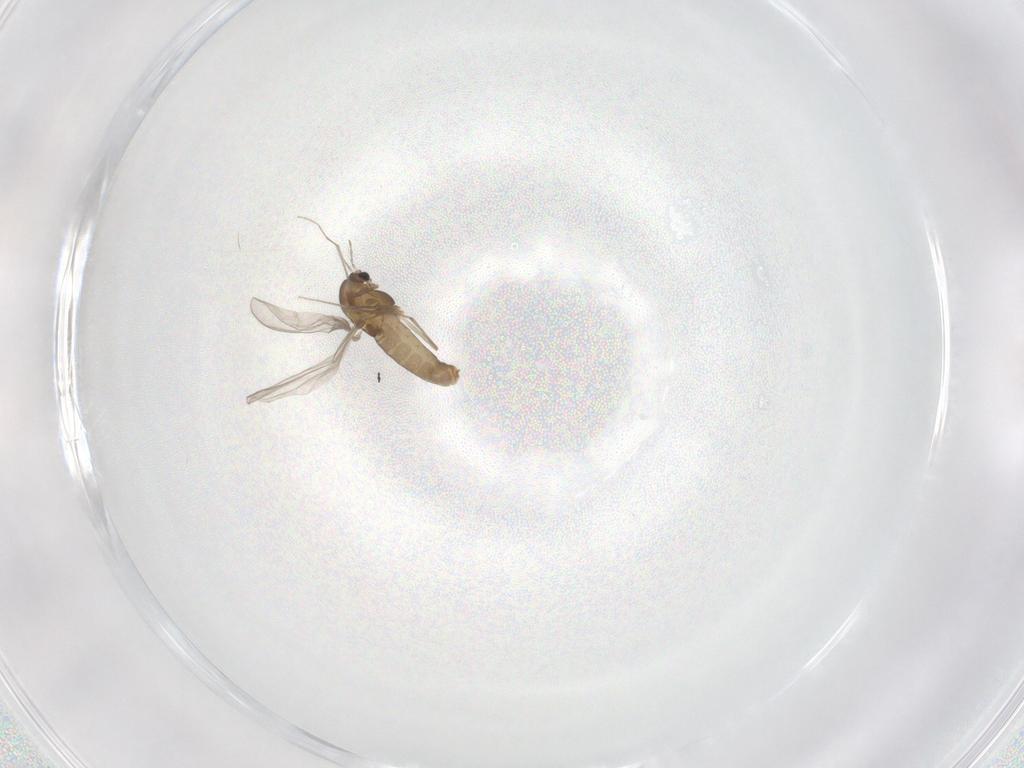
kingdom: Animalia
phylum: Arthropoda
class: Insecta
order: Diptera
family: Chironomidae
